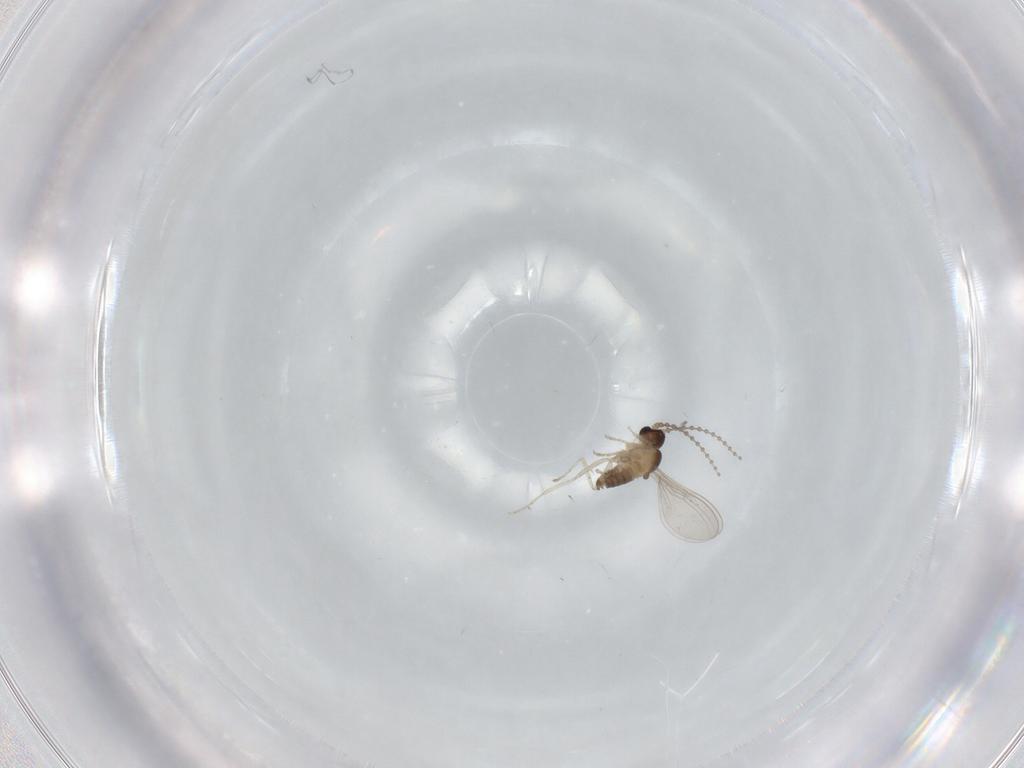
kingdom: Animalia
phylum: Arthropoda
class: Insecta
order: Diptera
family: Cecidomyiidae
